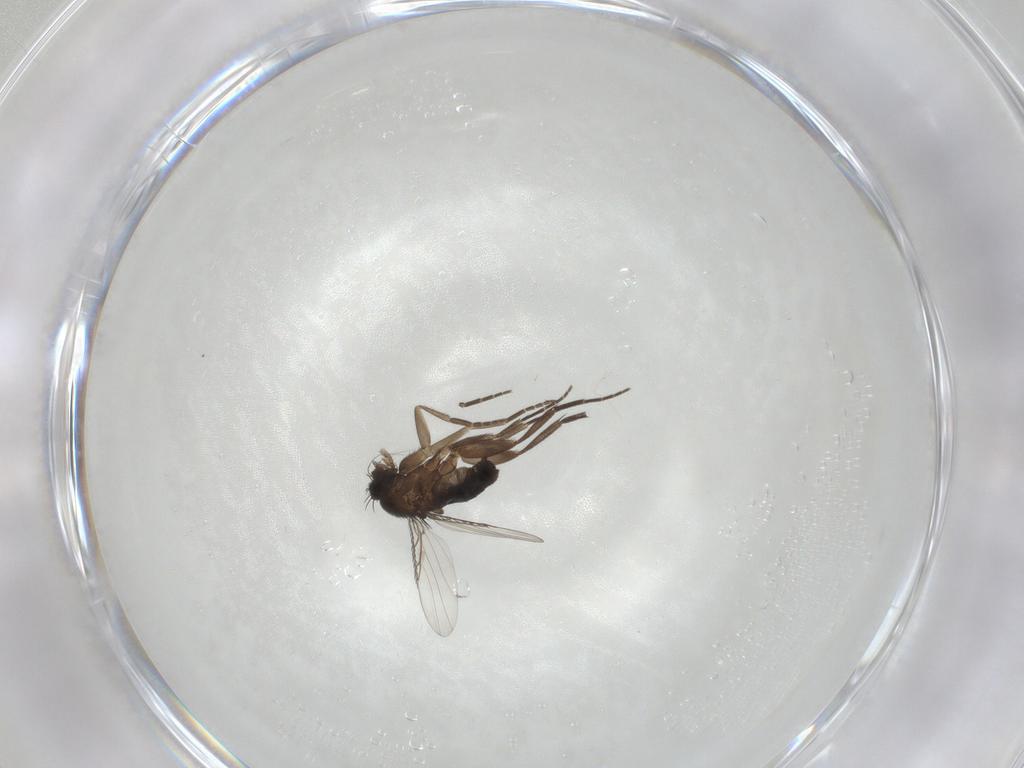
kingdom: Animalia
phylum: Arthropoda
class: Insecta
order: Diptera
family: Phoridae
